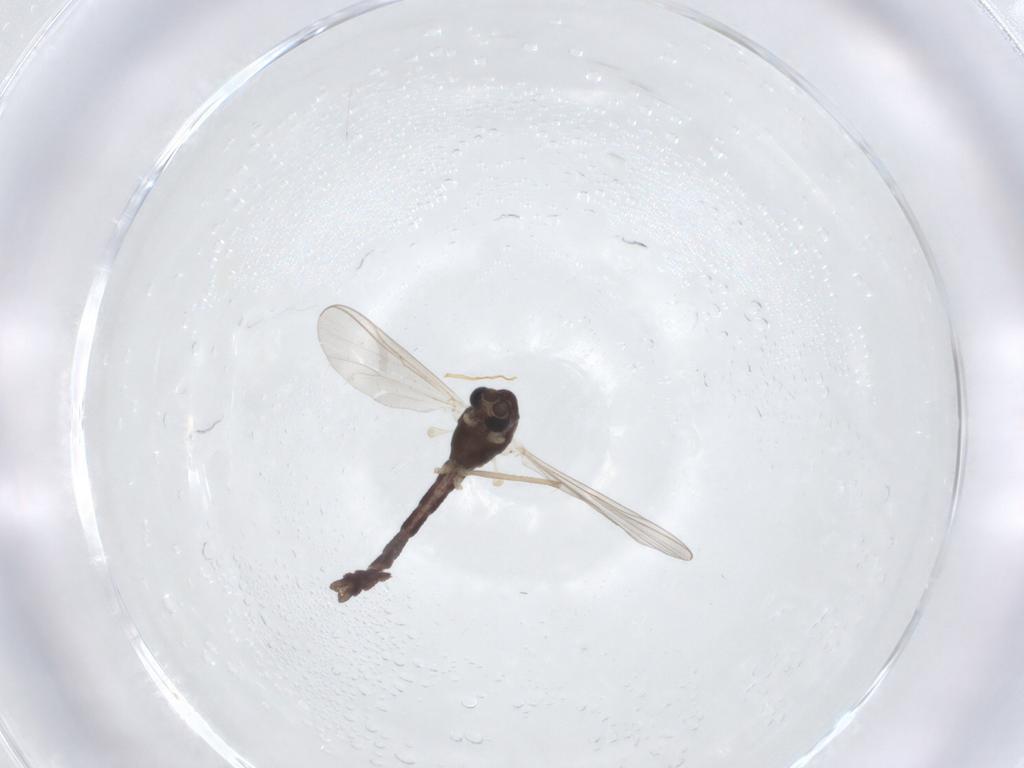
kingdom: Animalia
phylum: Arthropoda
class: Insecta
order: Diptera
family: Chironomidae
